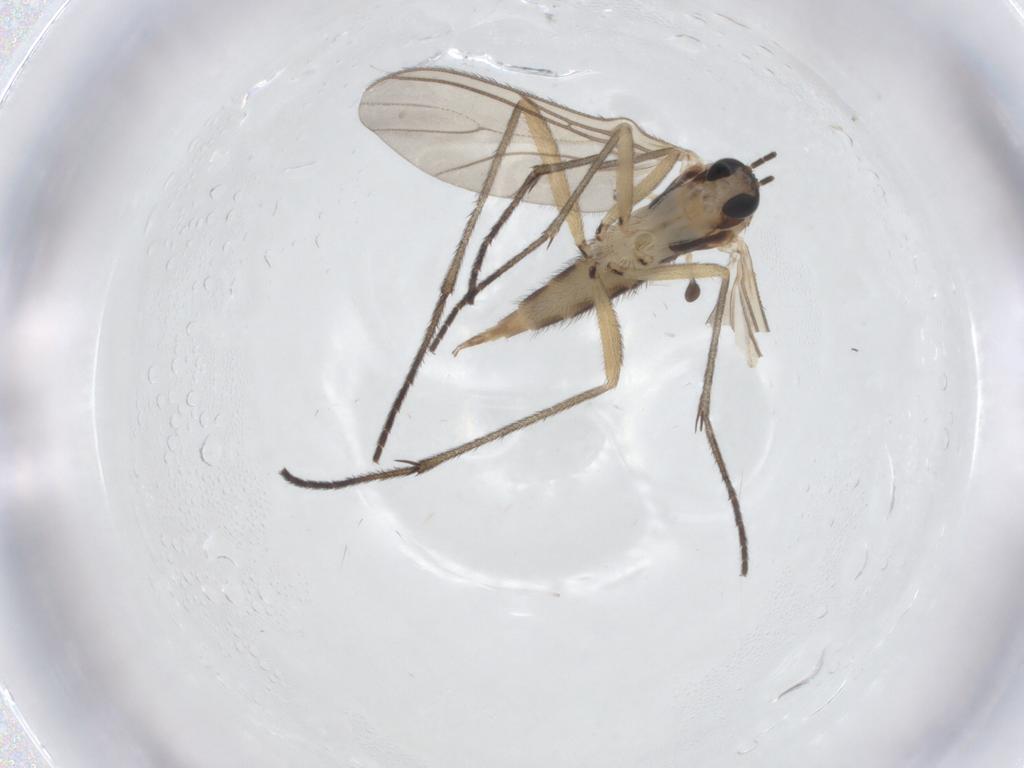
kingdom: Animalia
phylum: Arthropoda
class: Insecta
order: Diptera
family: Sciaridae
